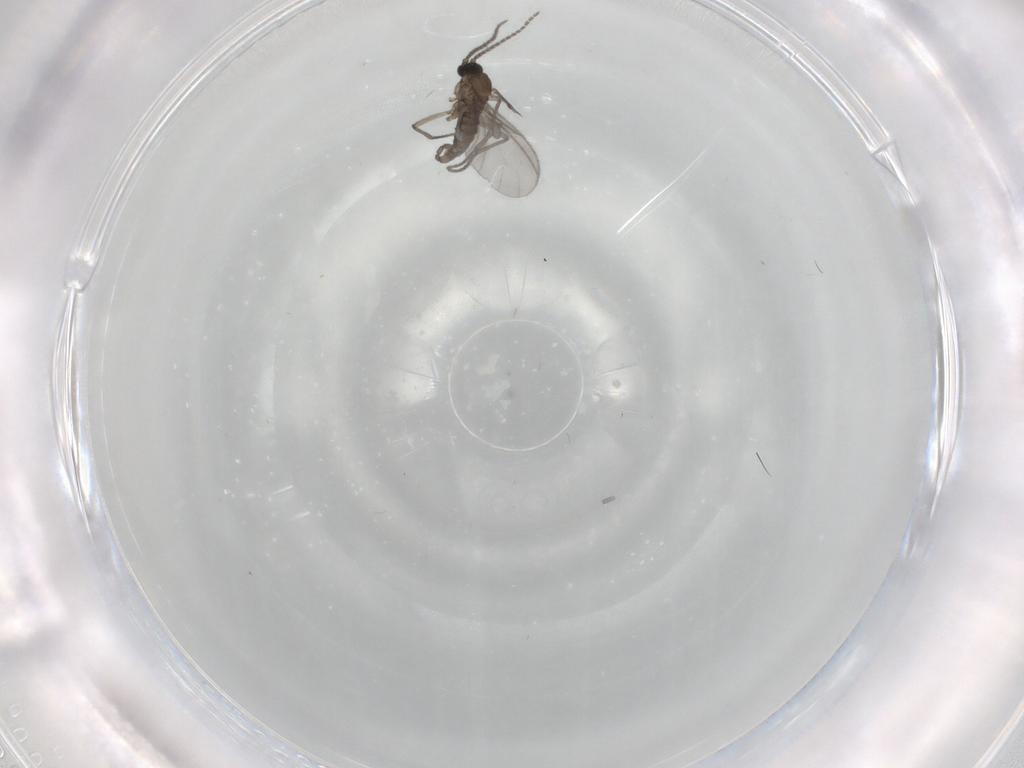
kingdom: Animalia
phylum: Arthropoda
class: Insecta
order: Diptera
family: Sciaridae
